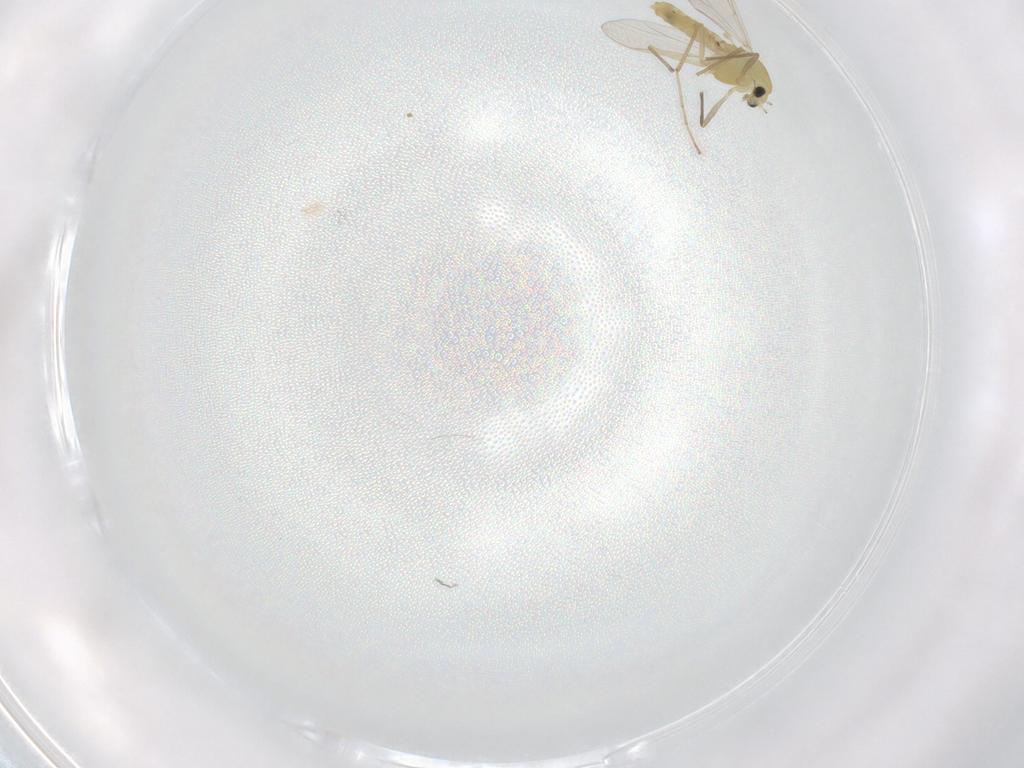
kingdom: Animalia
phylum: Arthropoda
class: Insecta
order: Diptera
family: Chironomidae
